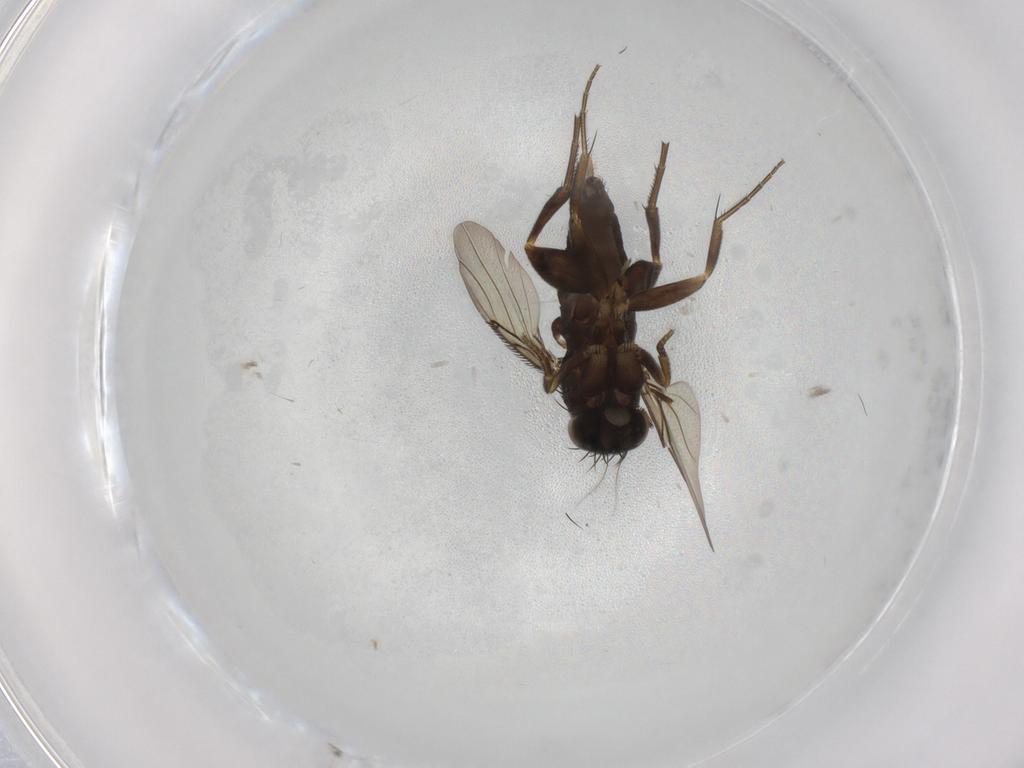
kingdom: Animalia
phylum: Arthropoda
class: Insecta
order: Diptera
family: Phoridae
